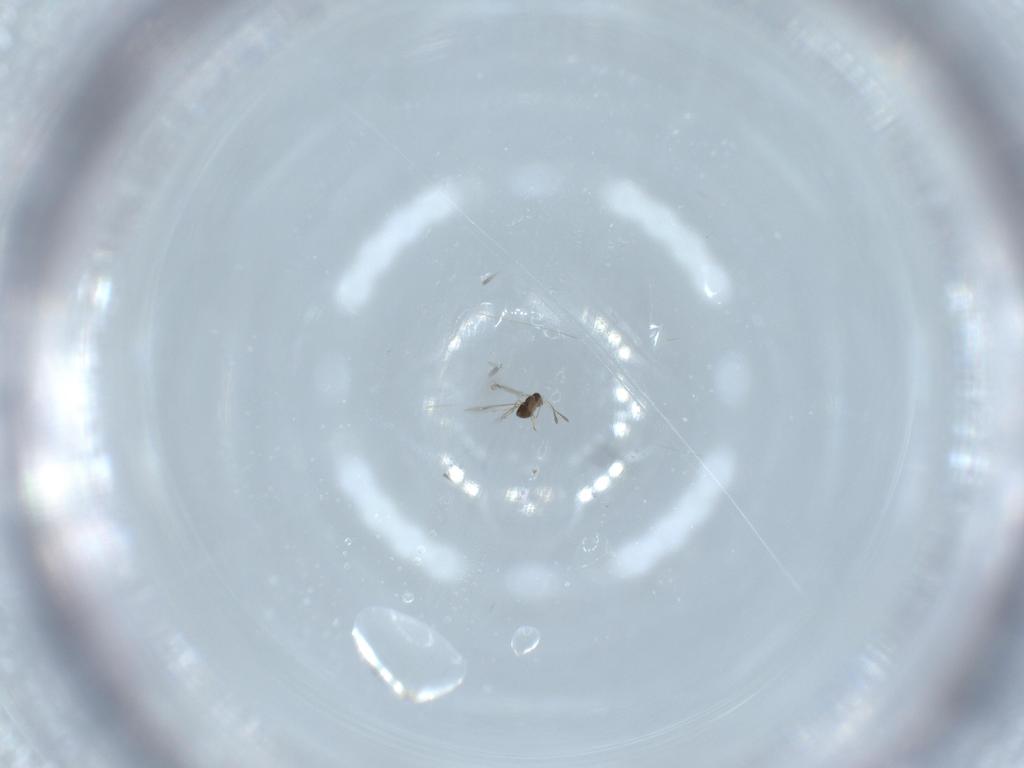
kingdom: Animalia
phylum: Arthropoda
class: Insecta
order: Hymenoptera
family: Mymaridae
